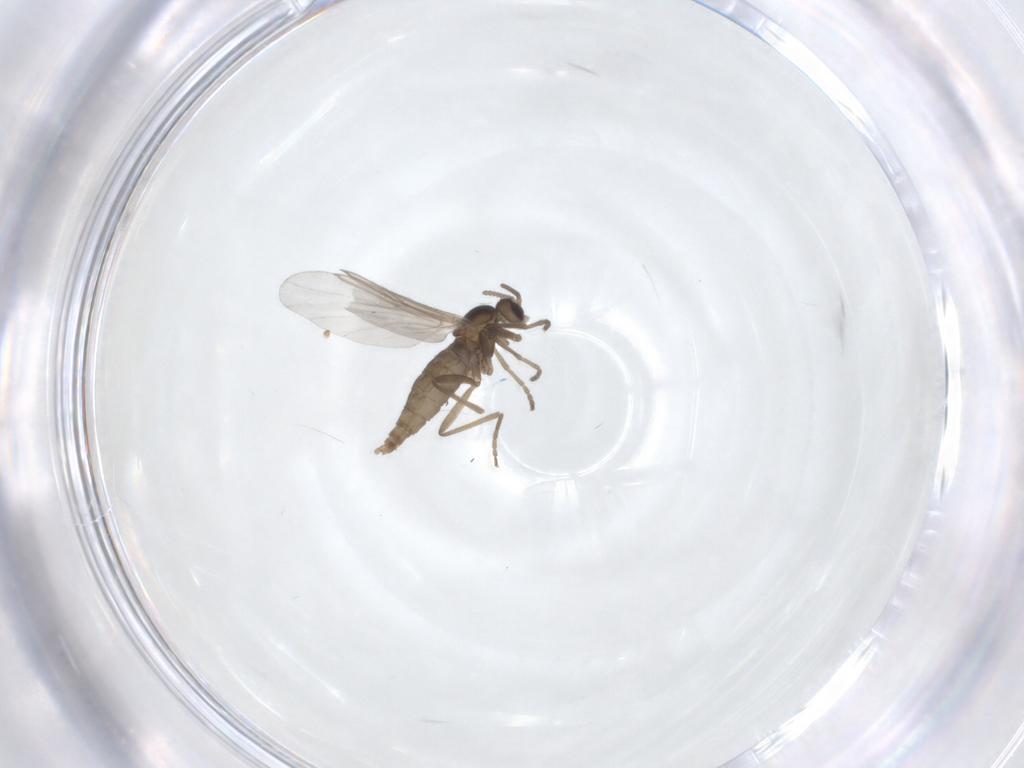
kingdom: Animalia
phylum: Arthropoda
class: Insecta
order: Diptera
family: Cecidomyiidae
